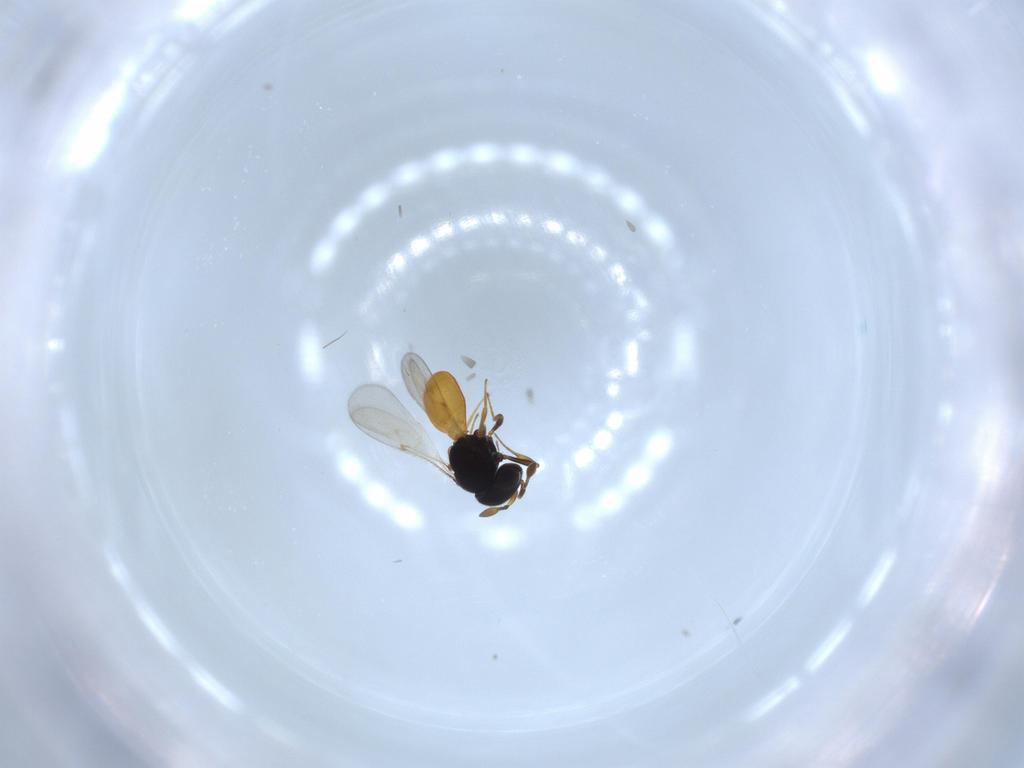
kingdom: Animalia
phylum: Arthropoda
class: Insecta
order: Hymenoptera
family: Scelionidae
